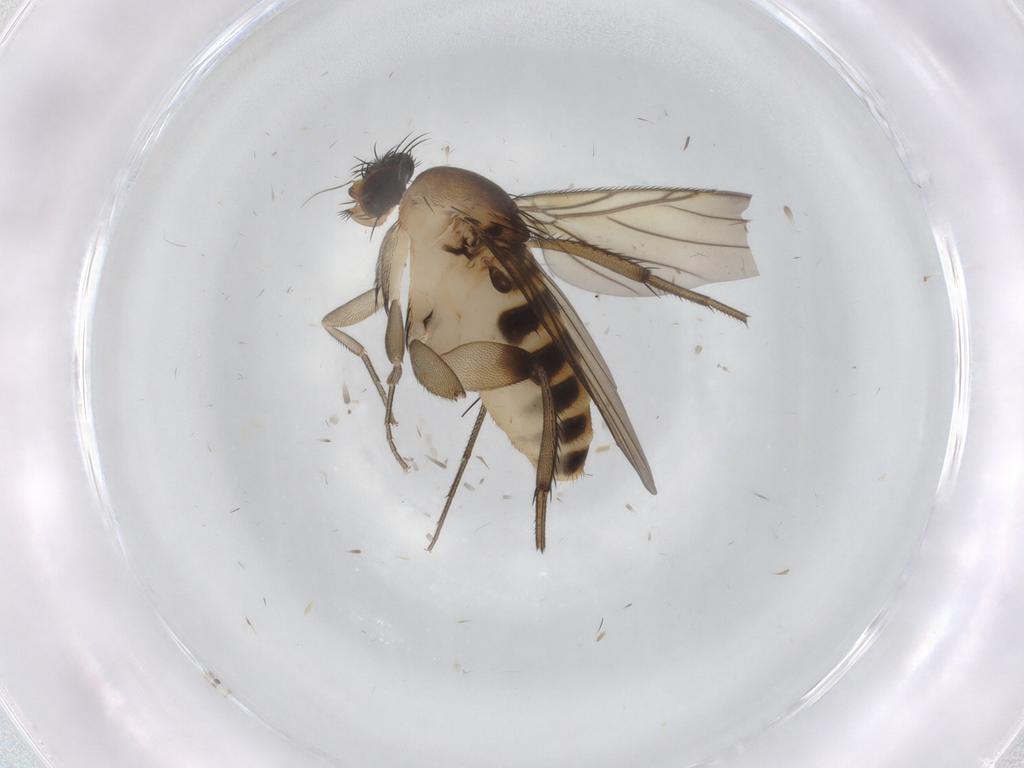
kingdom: Animalia
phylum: Arthropoda
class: Insecta
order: Diptera
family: Phoridae
